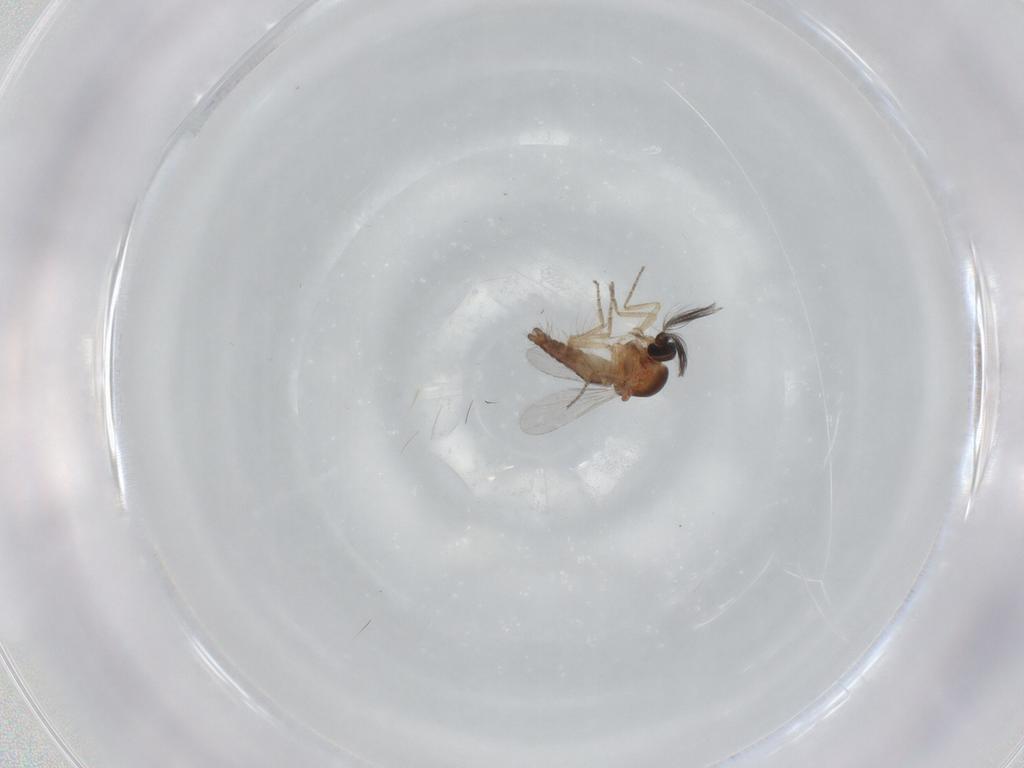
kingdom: Animalia
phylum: Arthropoda
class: Insecta
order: Diptera
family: Ceratopogonidae
